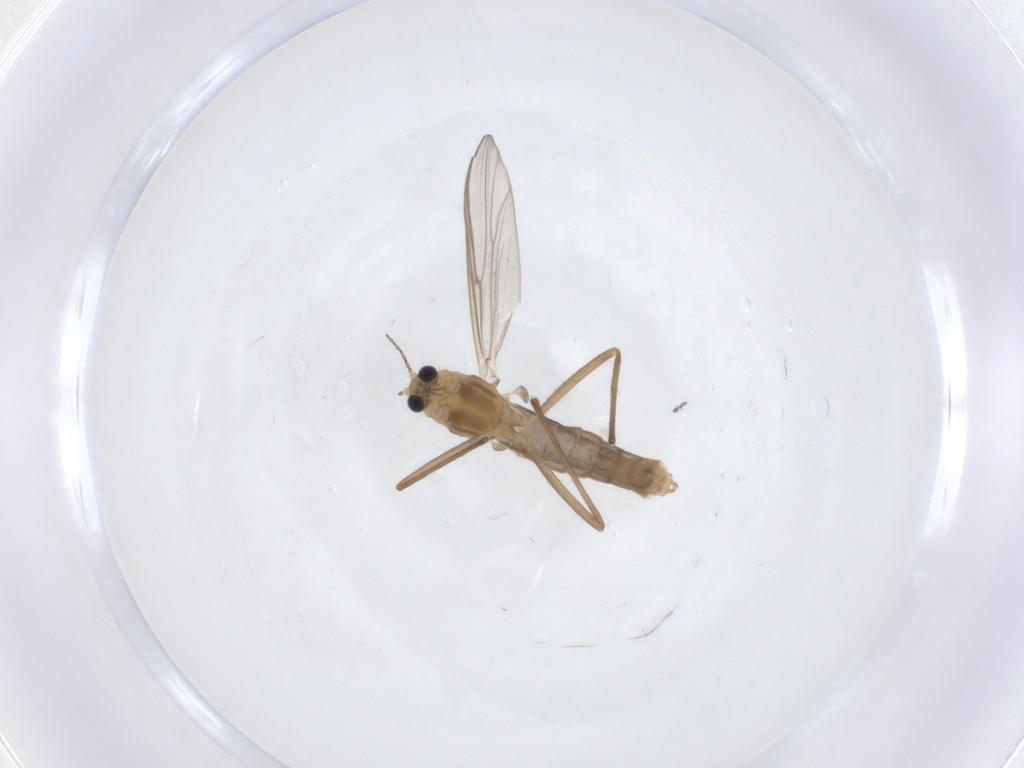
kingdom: Animalia
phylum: Arthropoda
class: Insecta
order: Diptera
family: Chironomidae
